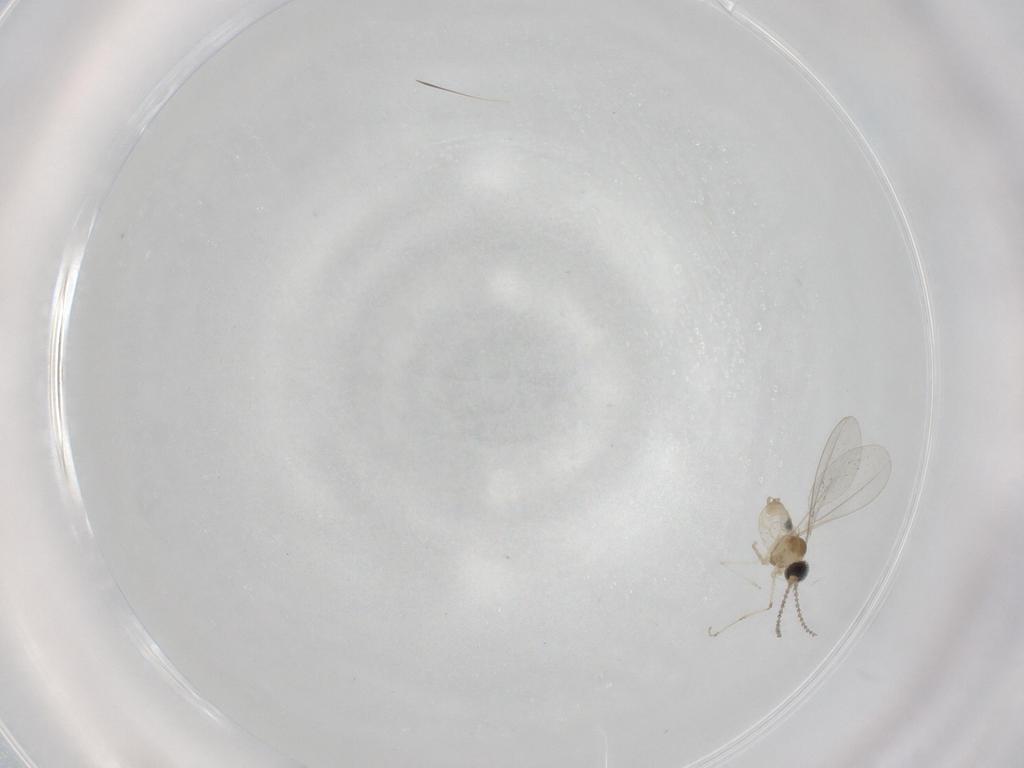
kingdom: Animalia
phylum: Arthropoda
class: Insecta
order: Diptera
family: Cecidomyiidae
